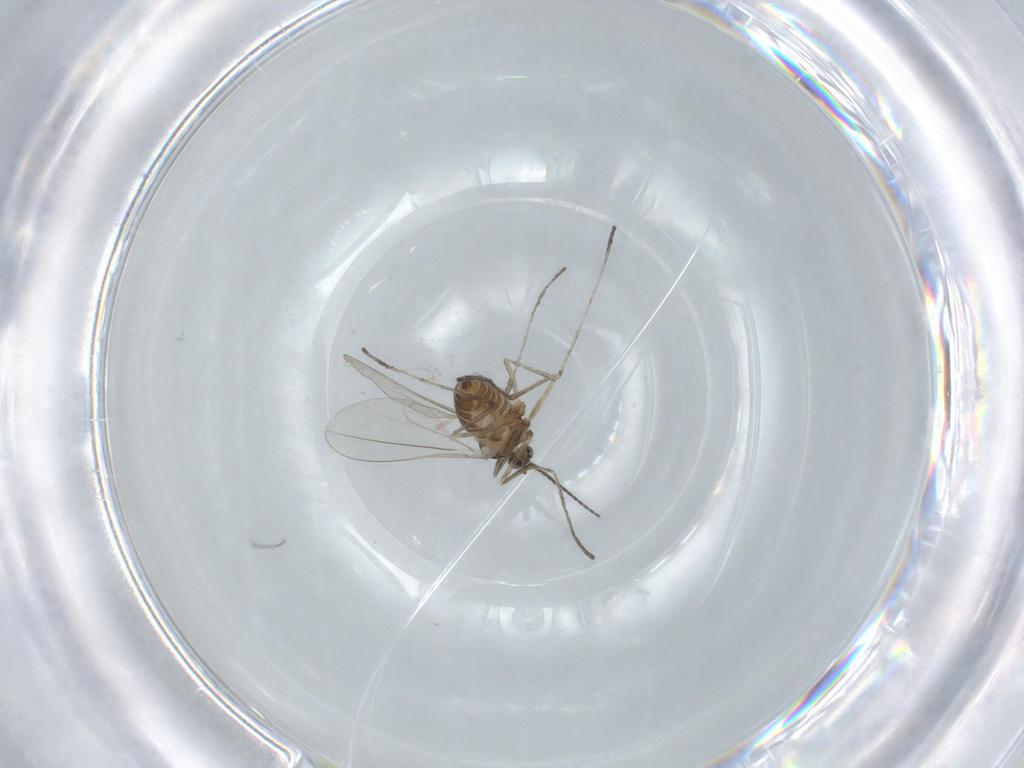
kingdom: Animalia
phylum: Arthropoda
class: Insecta
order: Diptera
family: Cecidomyiidae
